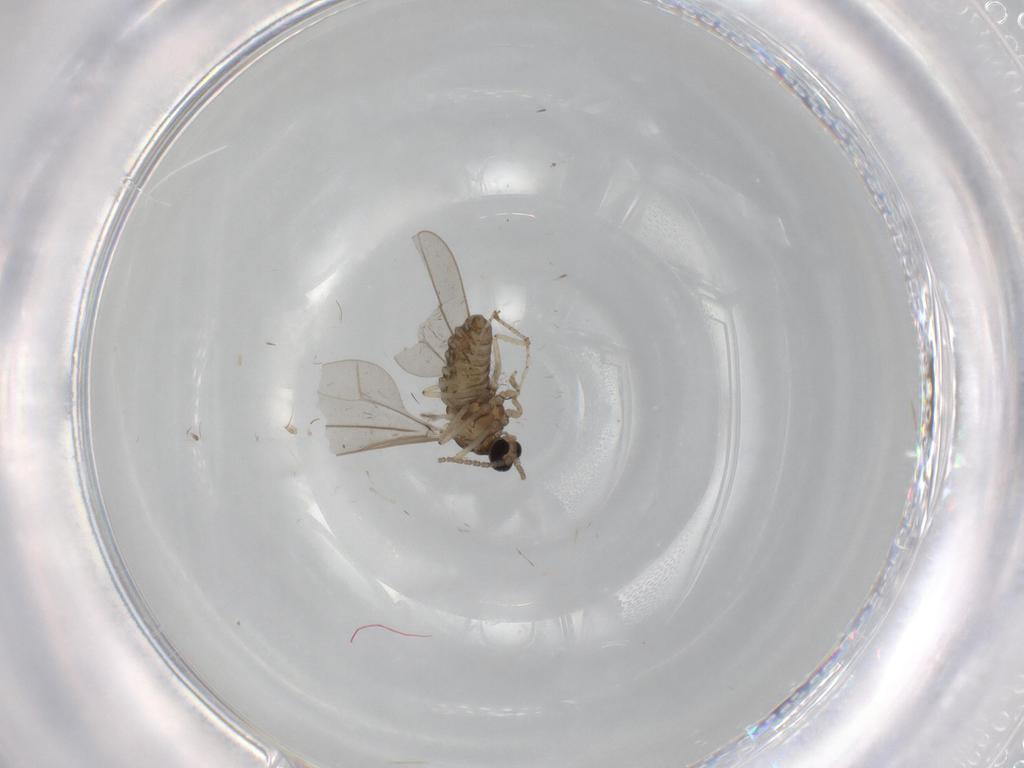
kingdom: Animalia
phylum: Arthropoda
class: Insecta
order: Diptera
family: Cecidomyiidae
